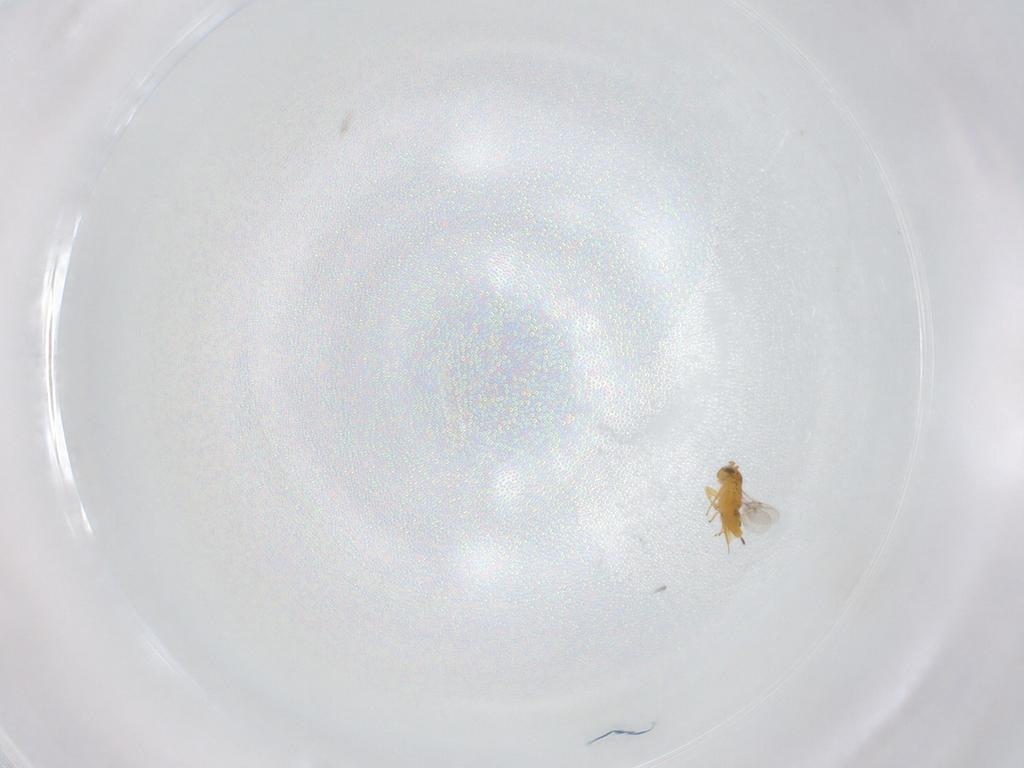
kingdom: Animalia
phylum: Arthropoda
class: Insecta
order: Hymenoptera
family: Encyrtidae
